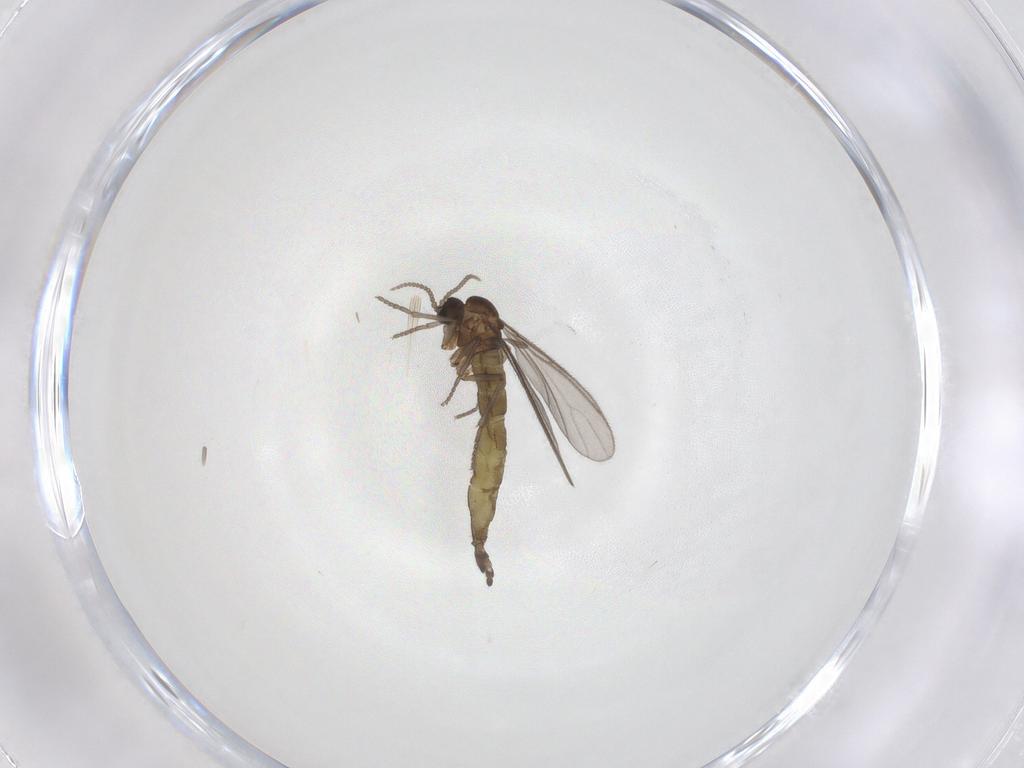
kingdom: Animalia
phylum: Arthropoda
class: Insecta
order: Diptera
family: Sciaridae
